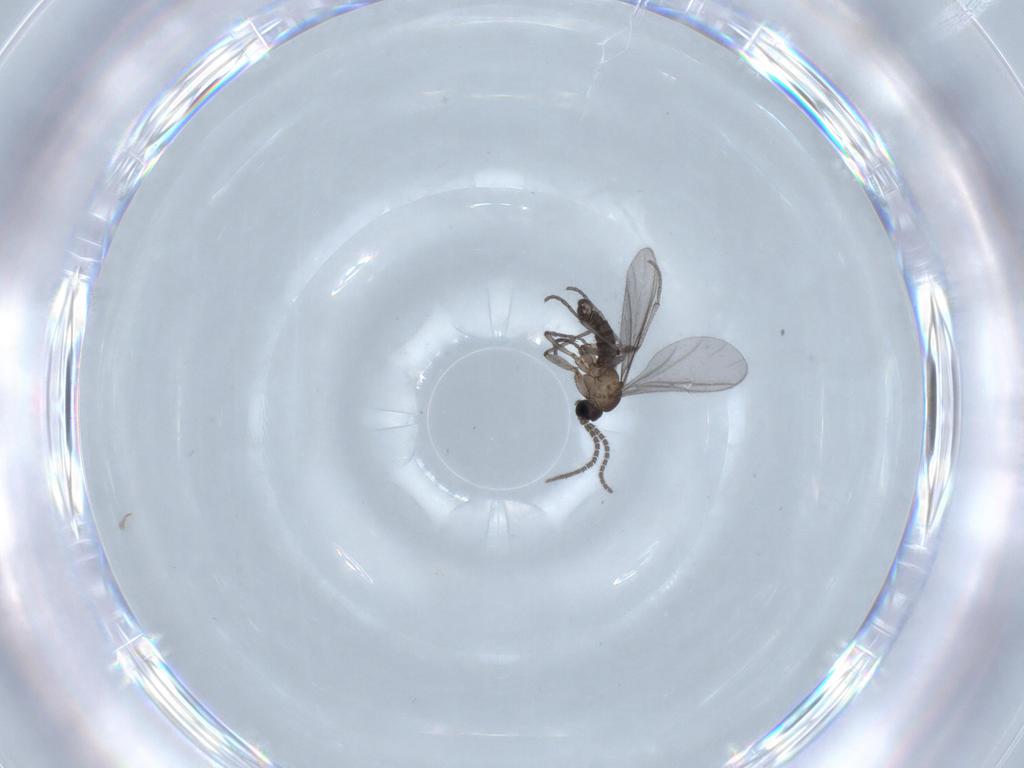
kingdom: Animalia
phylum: Arthropoda
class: Insecta
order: Diptera
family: Sciaridae
